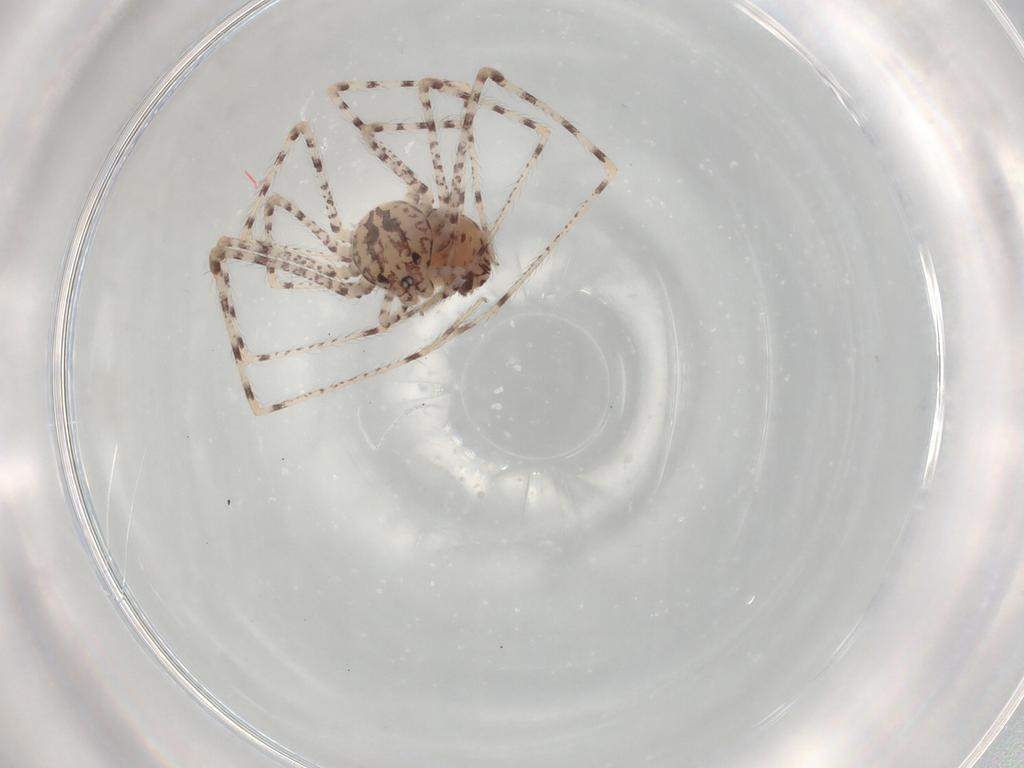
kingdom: Animalia
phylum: Arthropoda
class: Arachnida
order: Araneae
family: Scytodidae
